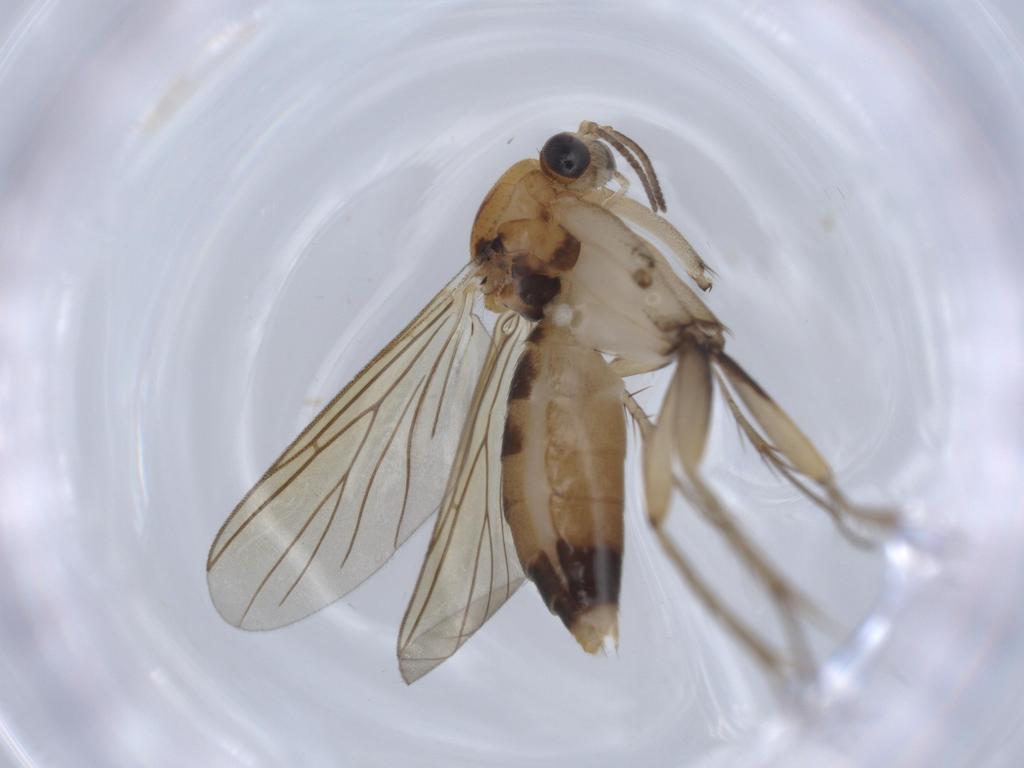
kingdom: Animalia
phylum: Arthropoda
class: Insecta
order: Diptera
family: Mycetophilidae
